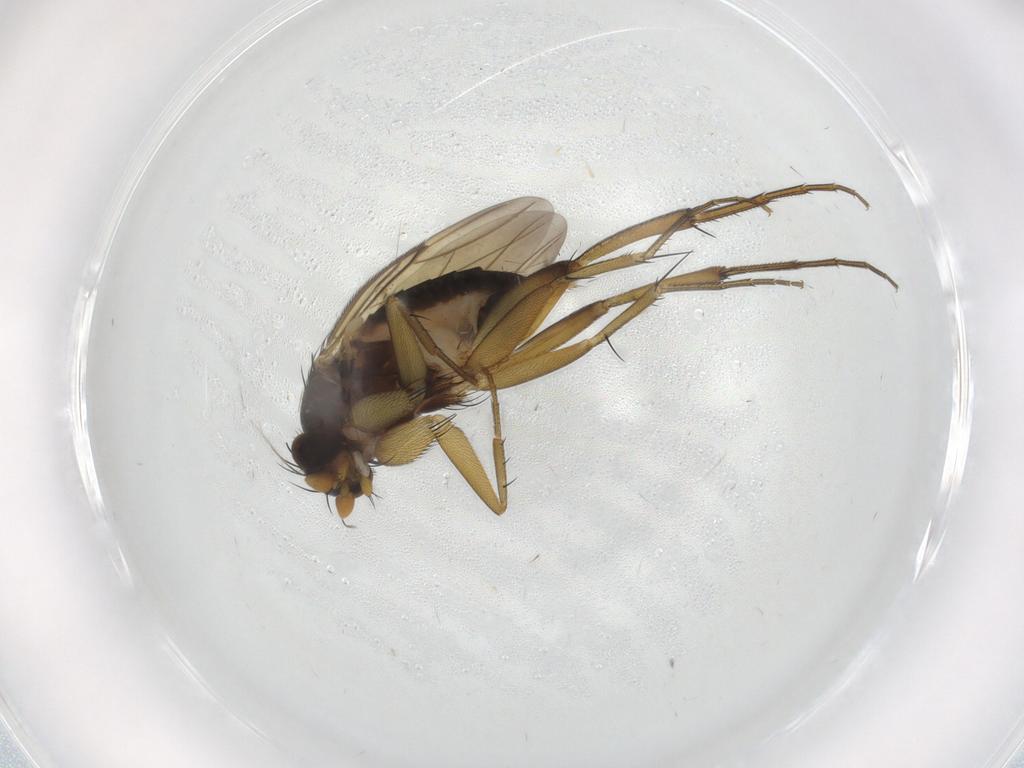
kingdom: Animalia
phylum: Arthropoda
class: Insecta
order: Diptera
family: Phoridae
